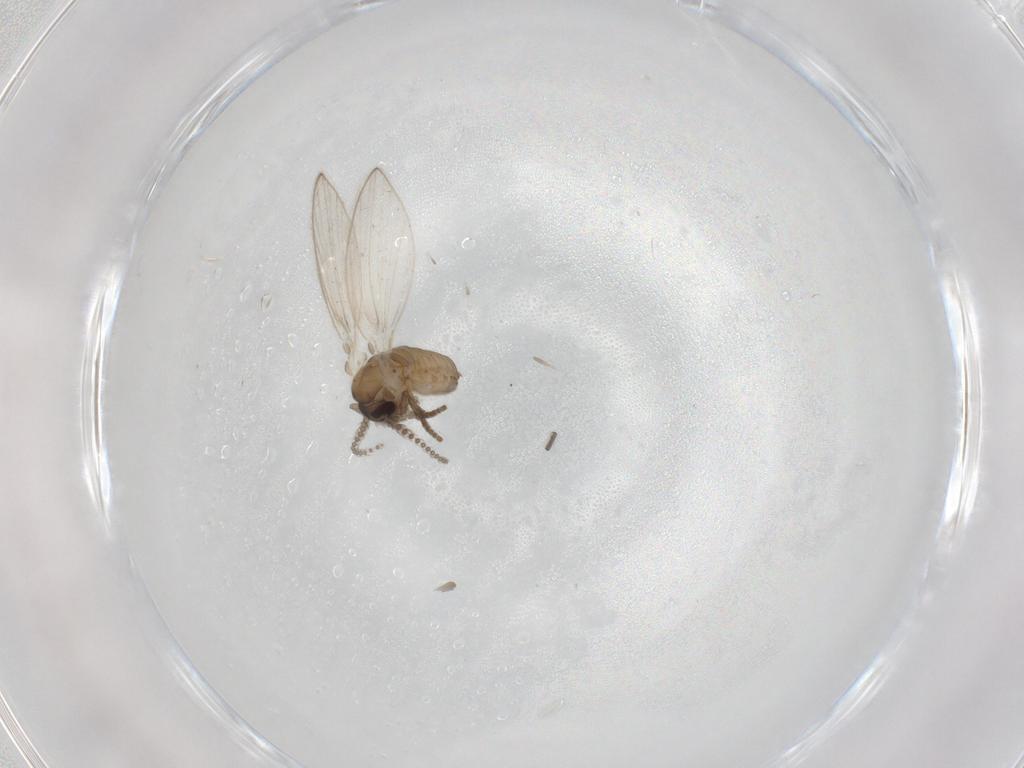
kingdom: Animalia
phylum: Arthropoda
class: Insecta
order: Diptera
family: Psychodidae
